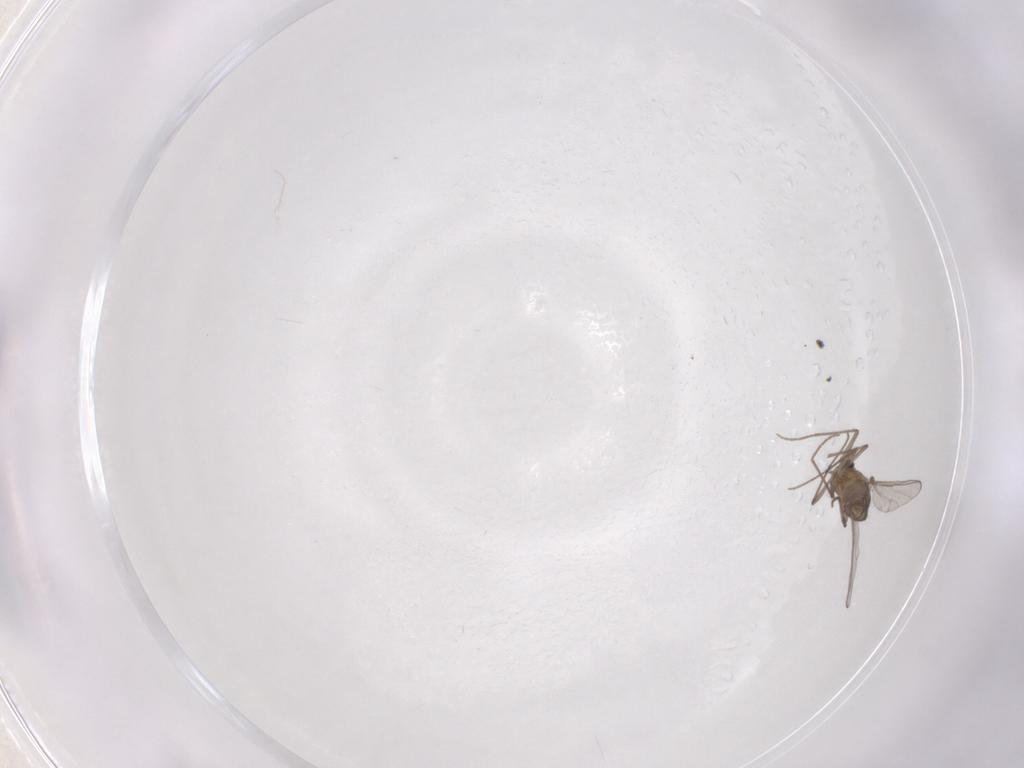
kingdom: Animalia
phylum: Arthropoda
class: Insecta
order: Diptera
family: Chironomidae
